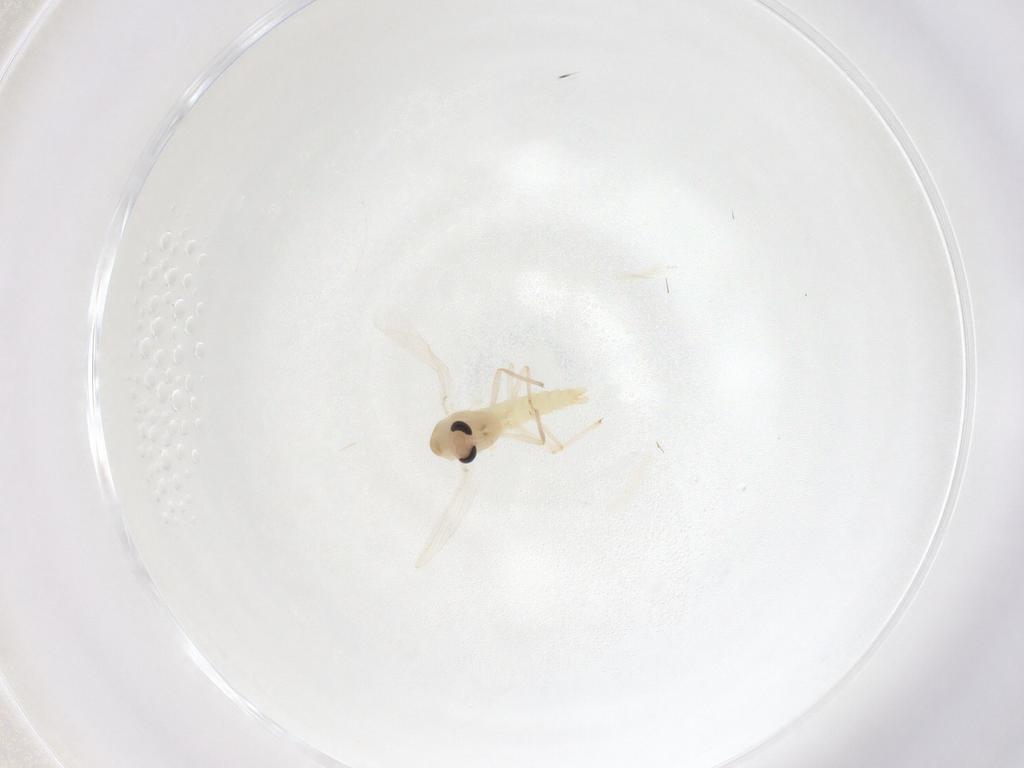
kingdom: Animalia
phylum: Arthropoda
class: Insecta
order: Diptera
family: Chironomidae
